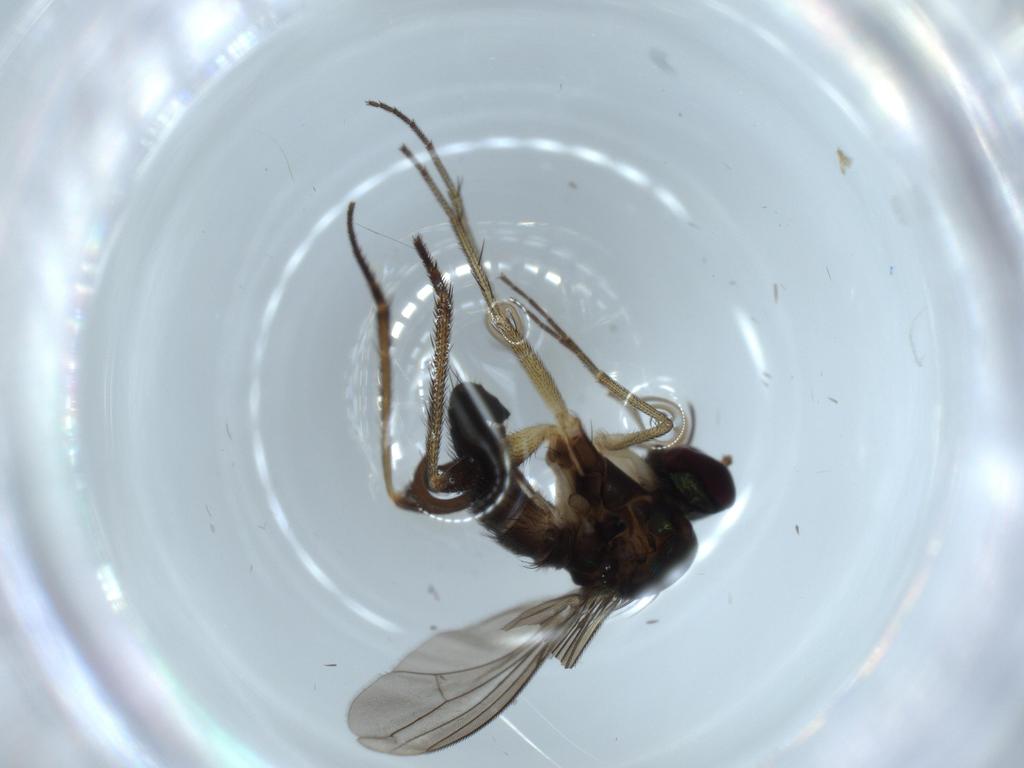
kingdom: Animalia
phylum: Arthropoda
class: Insecta
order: Diptera
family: Dolichopodidae
